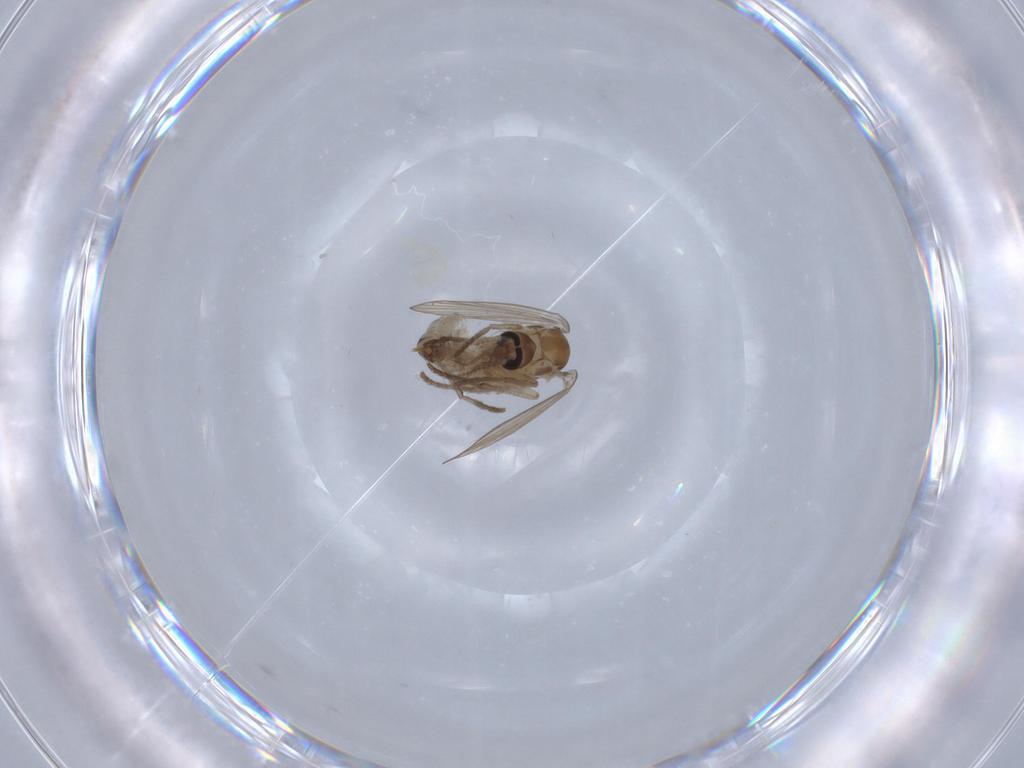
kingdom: Animalia
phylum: Arthropoda
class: Insecta
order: Diptera
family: Psychodidae
